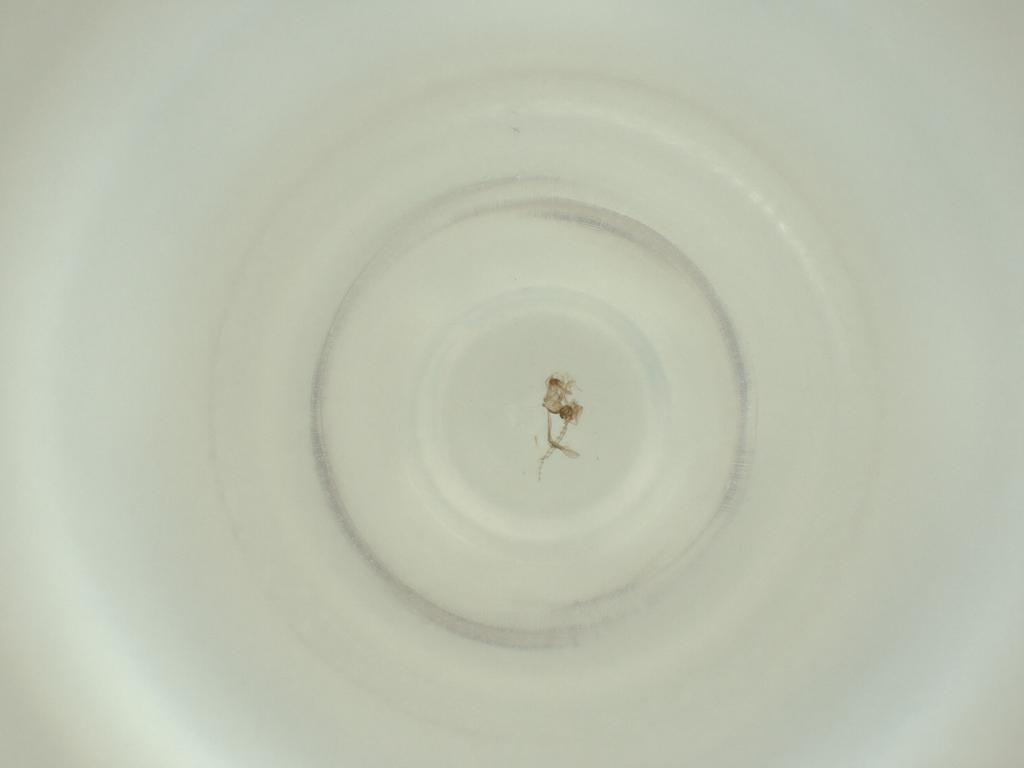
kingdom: Animalia
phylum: Arthropoda
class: Insecta
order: Diptera
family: Cecidomyiidae
